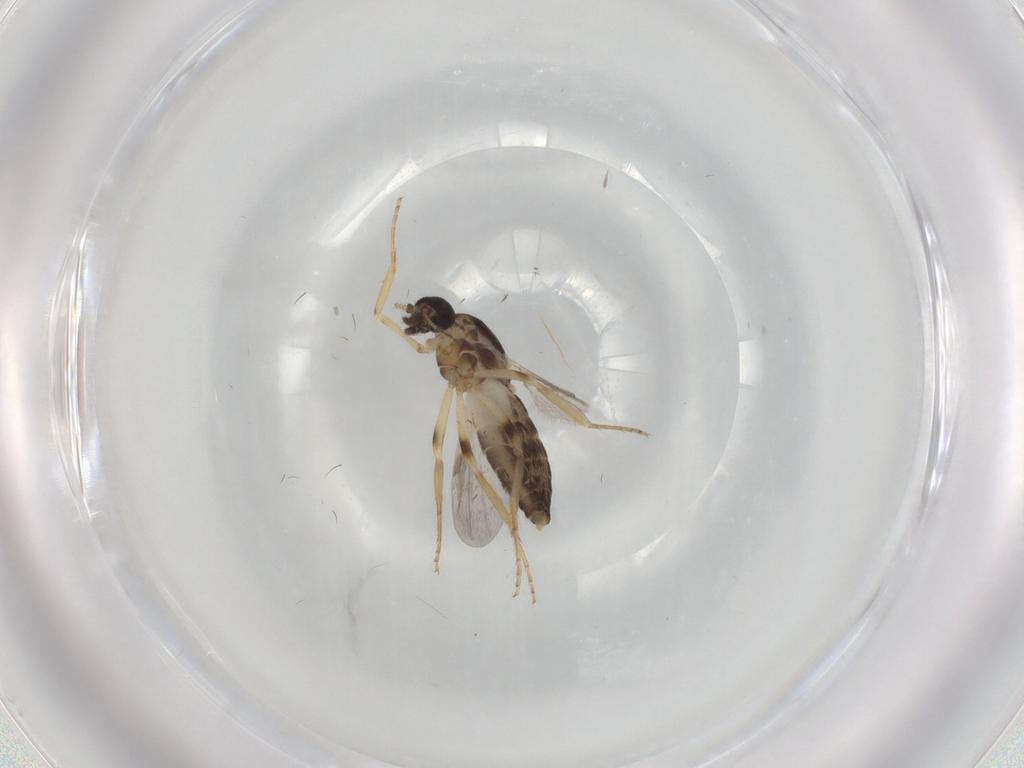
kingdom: Animalia
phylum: Arthropoda
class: Insecta
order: Diptera
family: Ceratopogonidae
